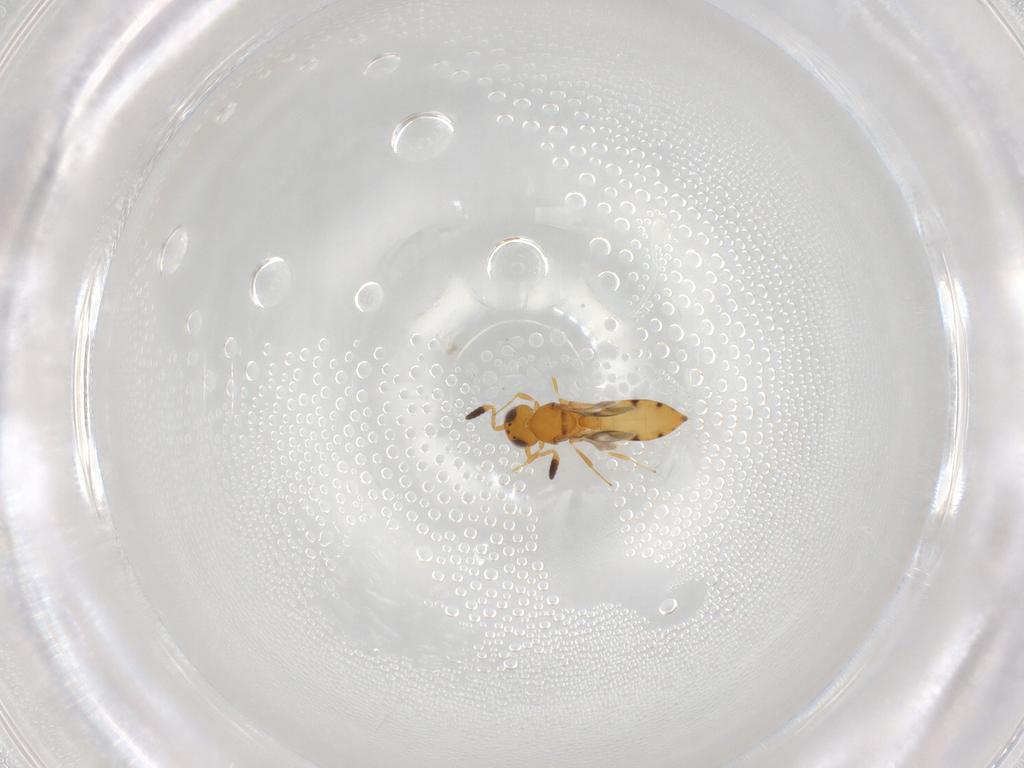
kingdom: Animalia
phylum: Arthropoda
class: Insecta
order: Hymenoptera
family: Scelionidae
